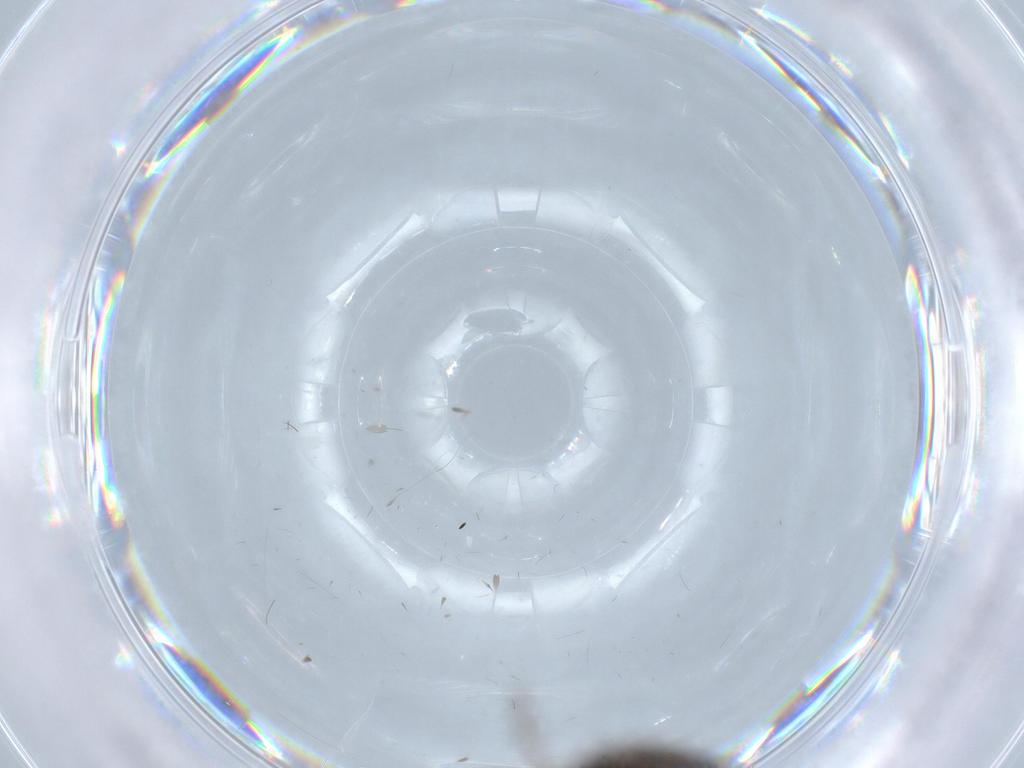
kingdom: Animalia
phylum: Arthropoda
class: Insecta
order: Diptera
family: Cecidomyiidae
